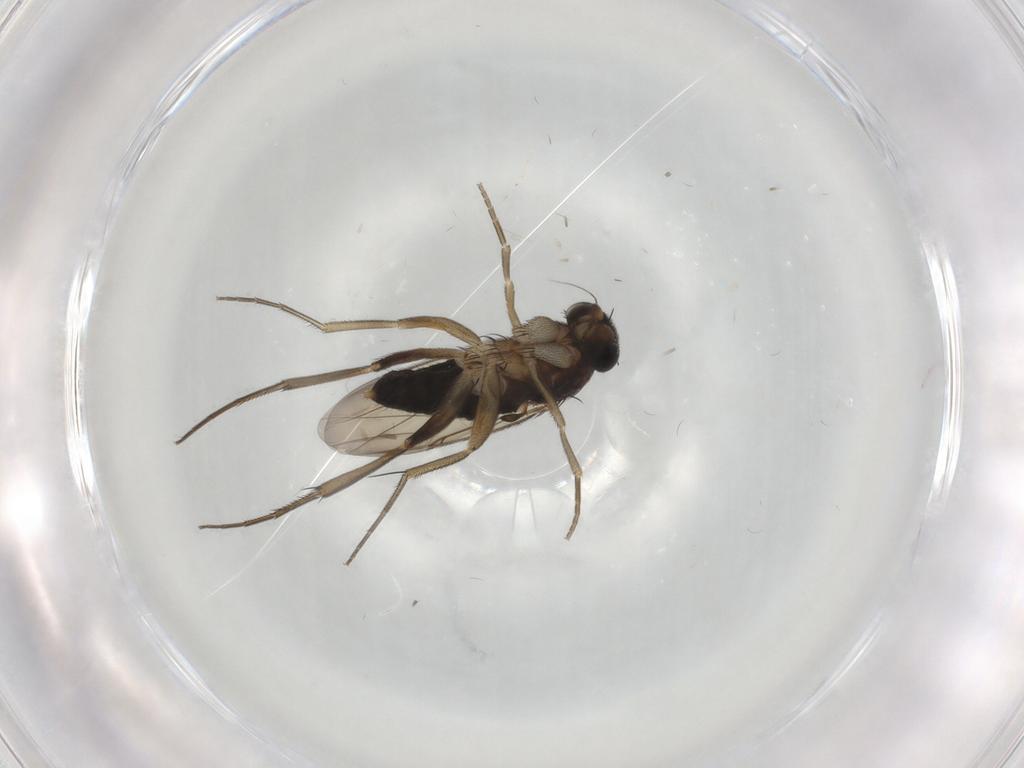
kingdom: Animalia
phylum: Arthropoda
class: Insecta
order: Diptera
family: Phoridae
